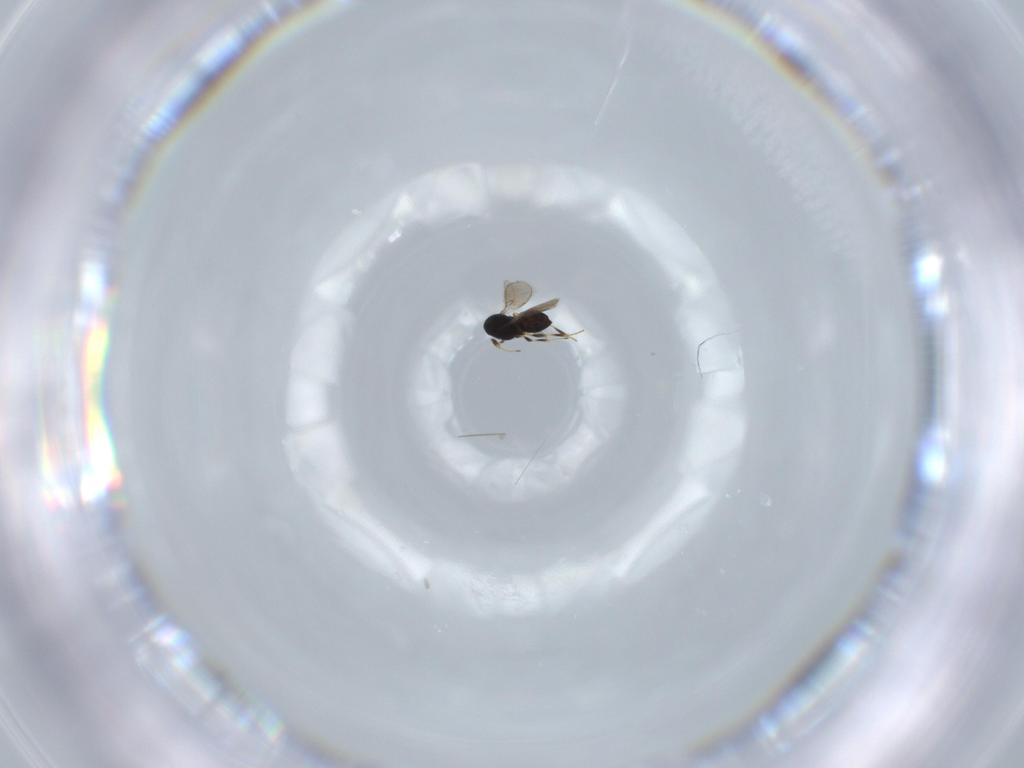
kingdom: Animalia
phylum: Arthropoda
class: Insecta
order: Hymenoptera
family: Scelionidae
